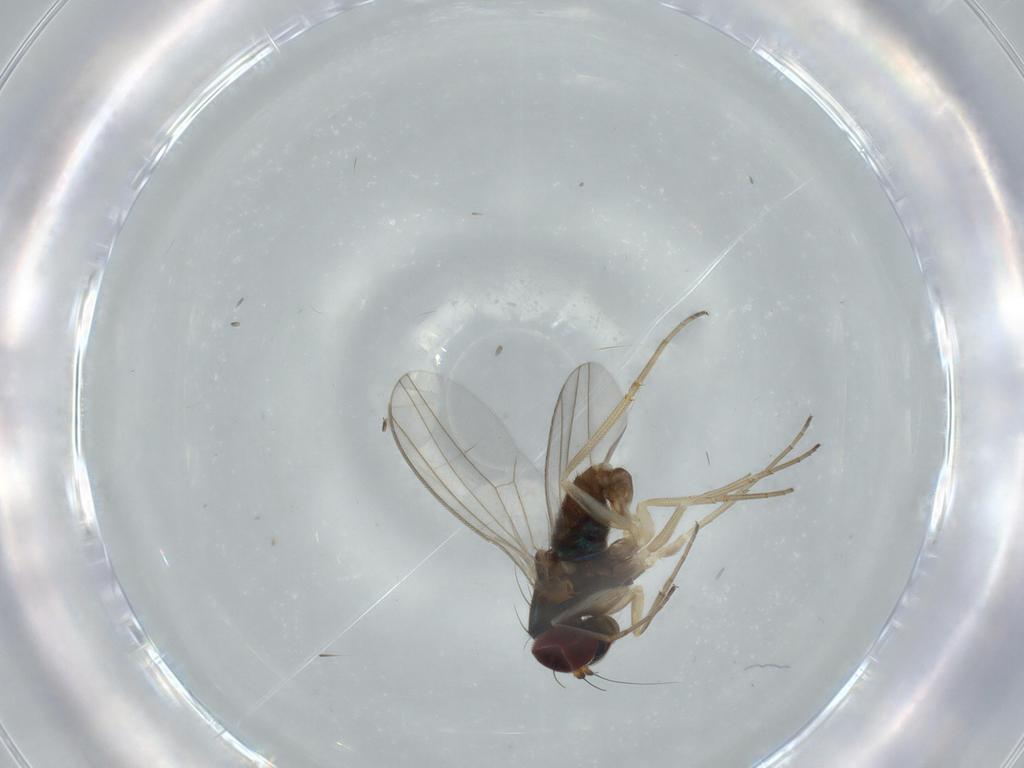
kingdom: Animalia
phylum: Arthropoda
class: Insecta
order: Diptera
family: Dolichopodidae
